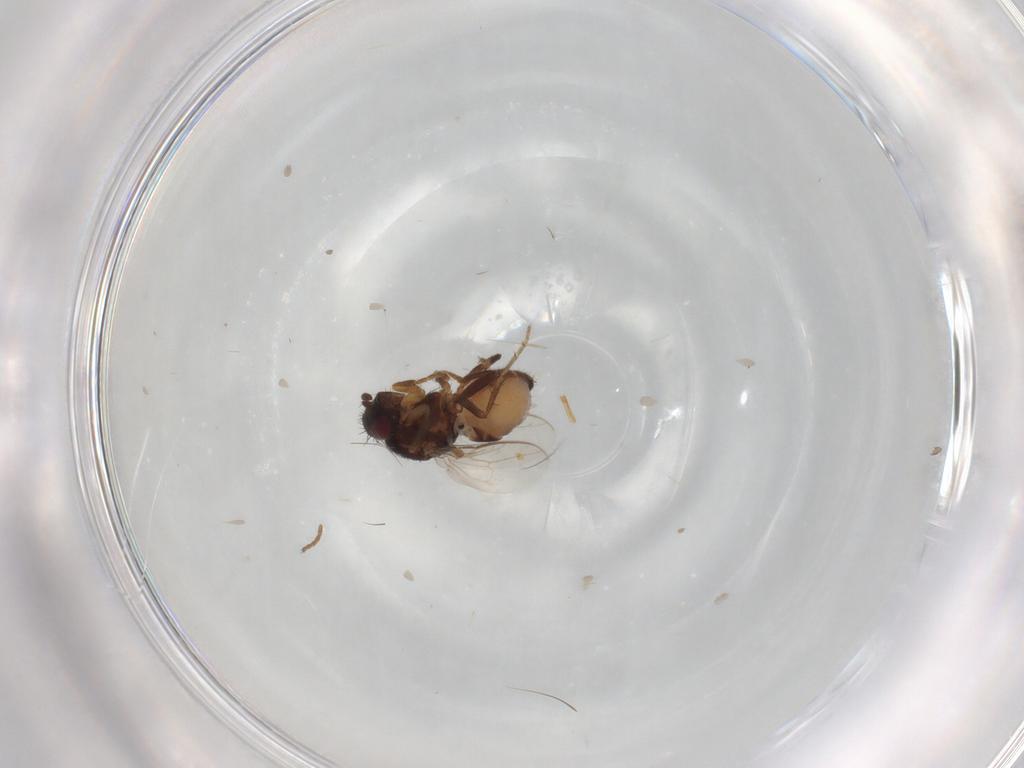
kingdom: Animalia
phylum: Arthropoda
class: Insecta
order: Diptera
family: Sphaeroceridae
